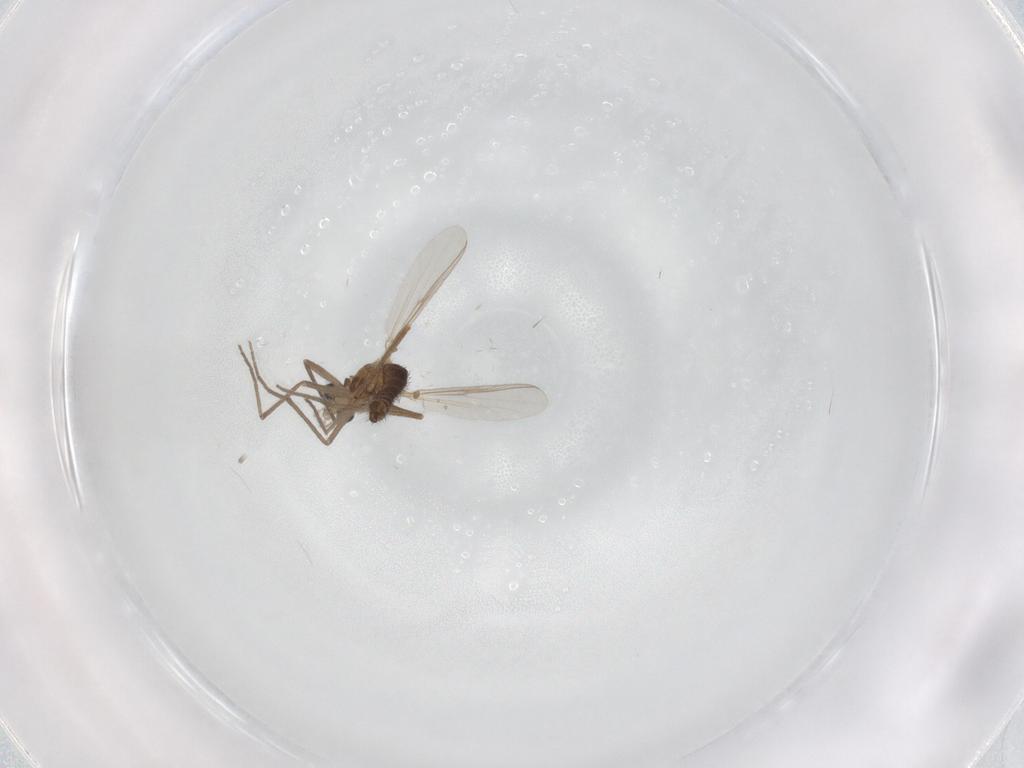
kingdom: Animalia
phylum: Arthropoda
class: Insecta
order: Diptera
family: Chironomidae
